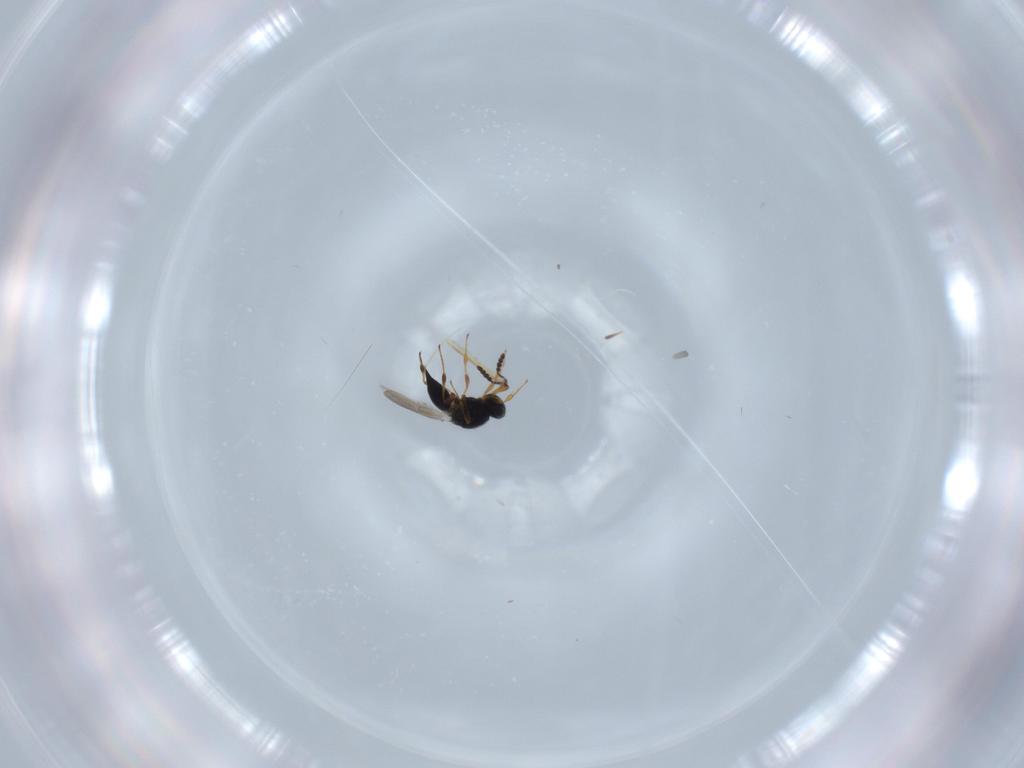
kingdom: Animalia
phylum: Arthropoda
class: Insecta
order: Hymenoptera
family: Platygastridae
